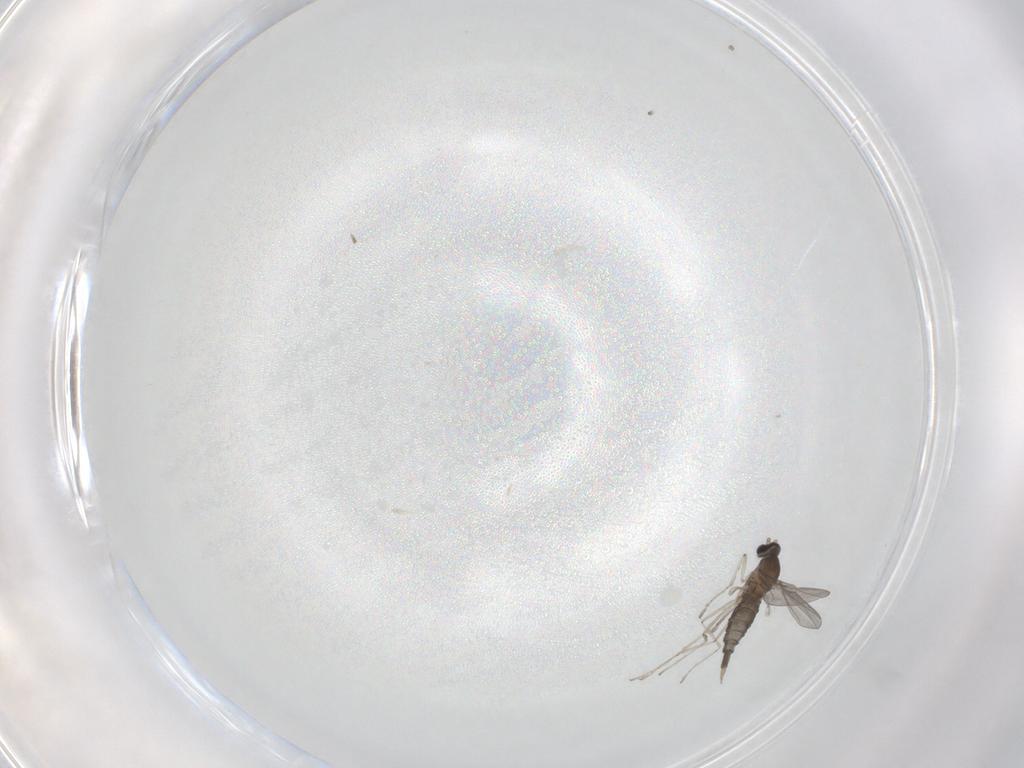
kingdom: Animalia
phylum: Arthropoda
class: Insecta
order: Diptera
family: Cecidomyiidae
